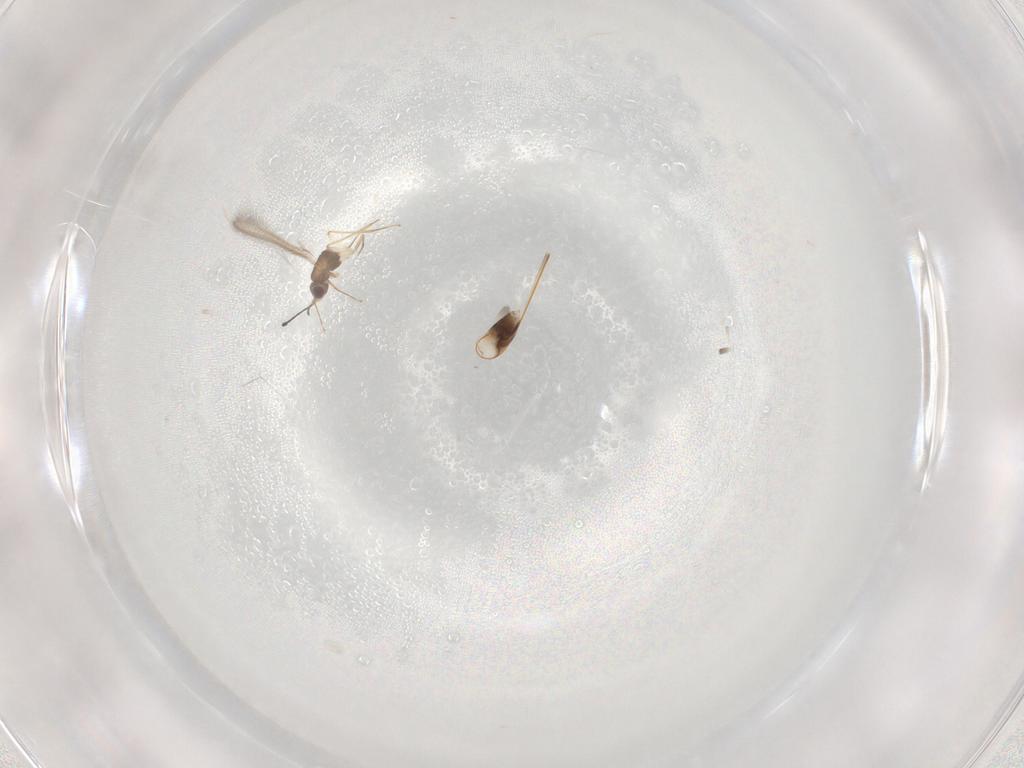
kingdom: Animalia
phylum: Arthropoda
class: Insecta
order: Hymenoptera
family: Mymaridae
